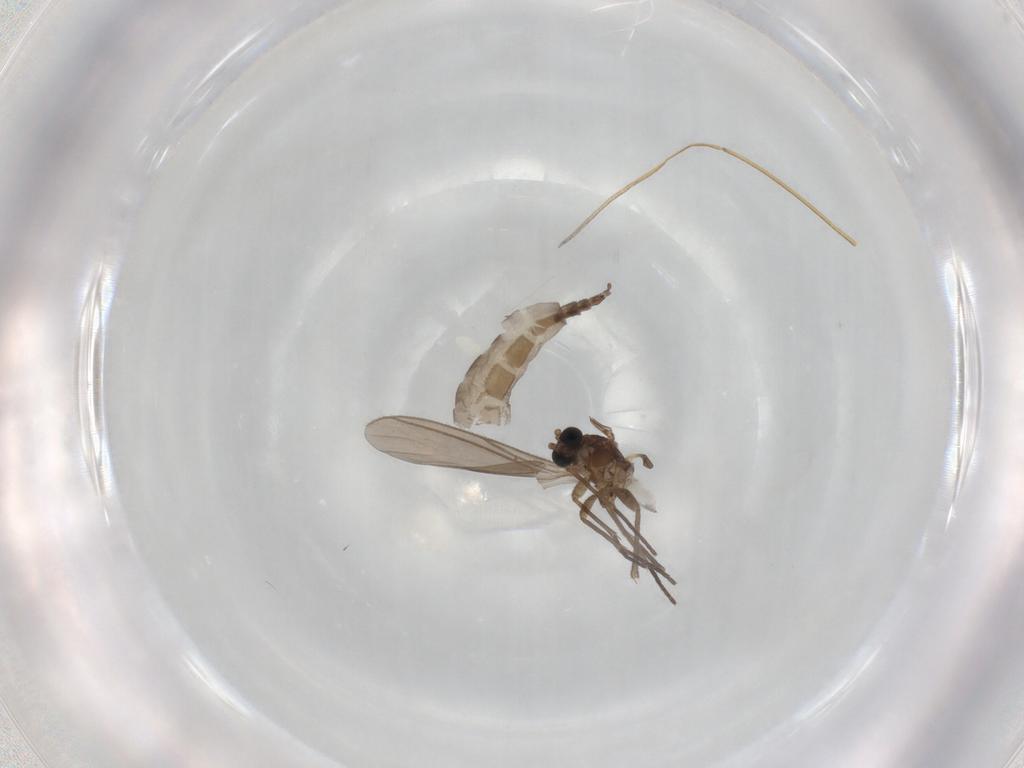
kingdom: Animalia
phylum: Arthropoda
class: Insecta
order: Diptera
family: Sciaridae
